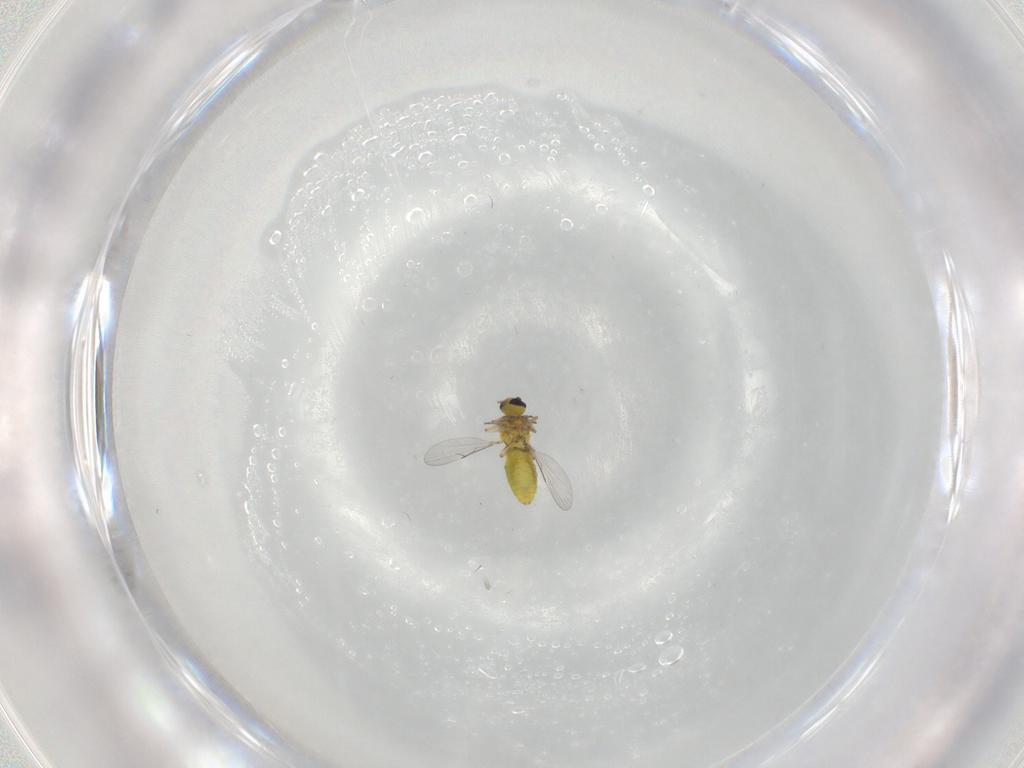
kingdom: Animalia
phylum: Arthropoda
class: Insecta
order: Diptera
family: Ceratopogonidae
